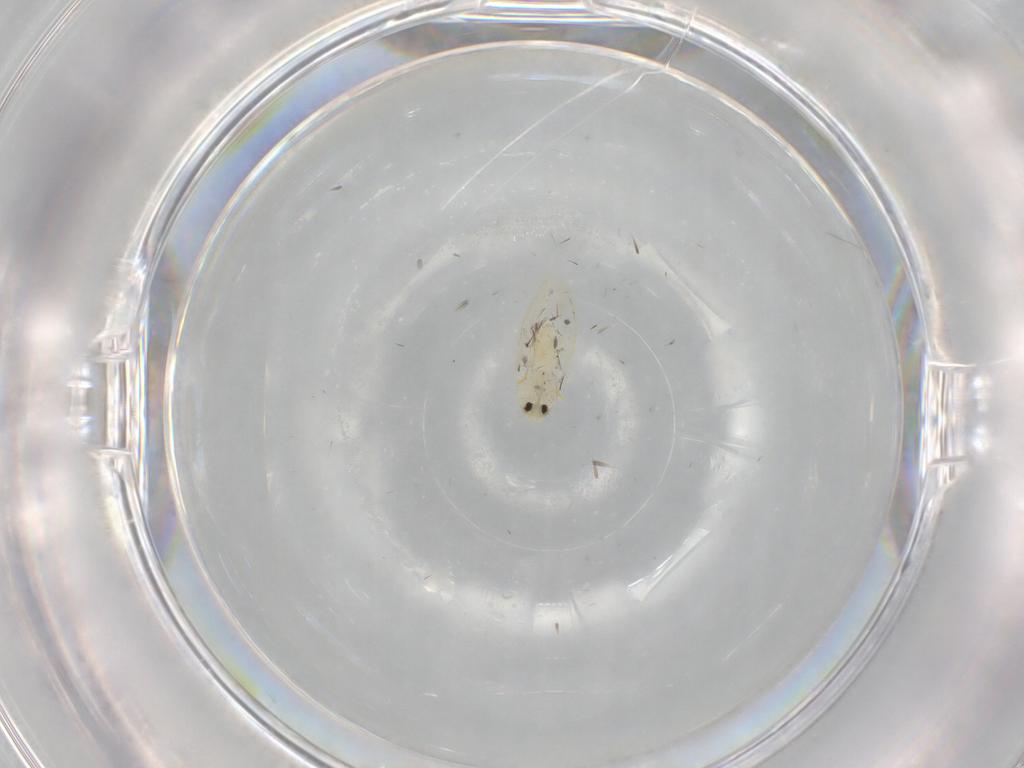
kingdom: Animalia
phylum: Arthropoda
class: Insecta
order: Hemiptera
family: Aleyrodidae
